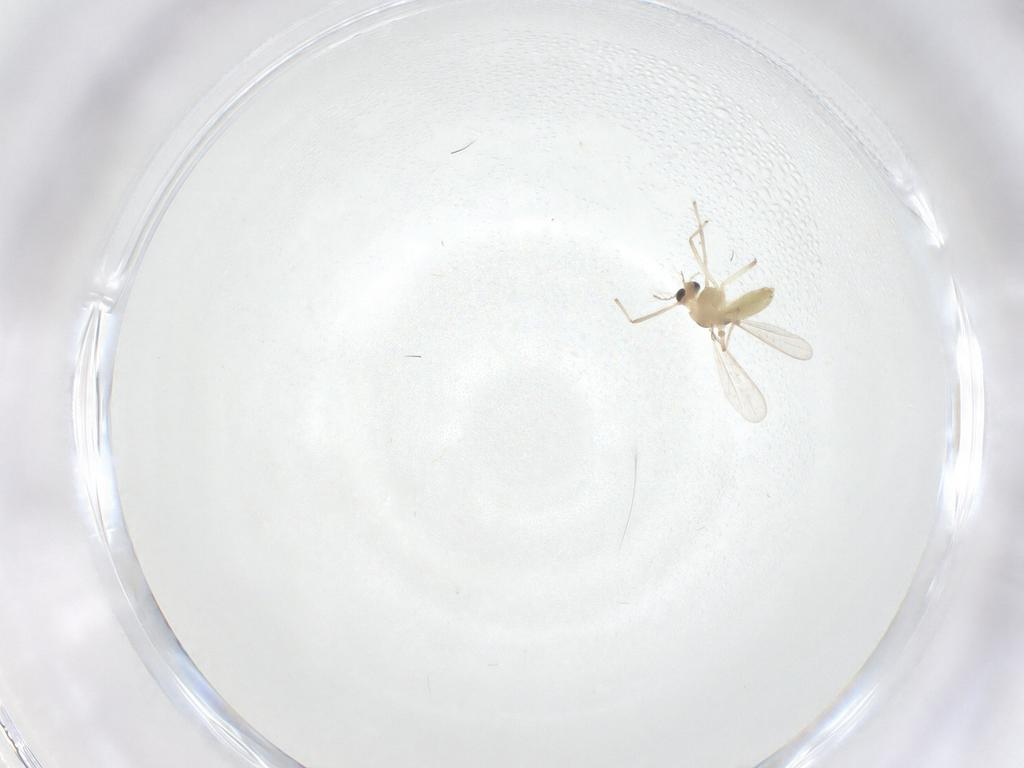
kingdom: Animalia
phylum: Arthropoda
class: Insecta
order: Diptera
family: Chironomidae
